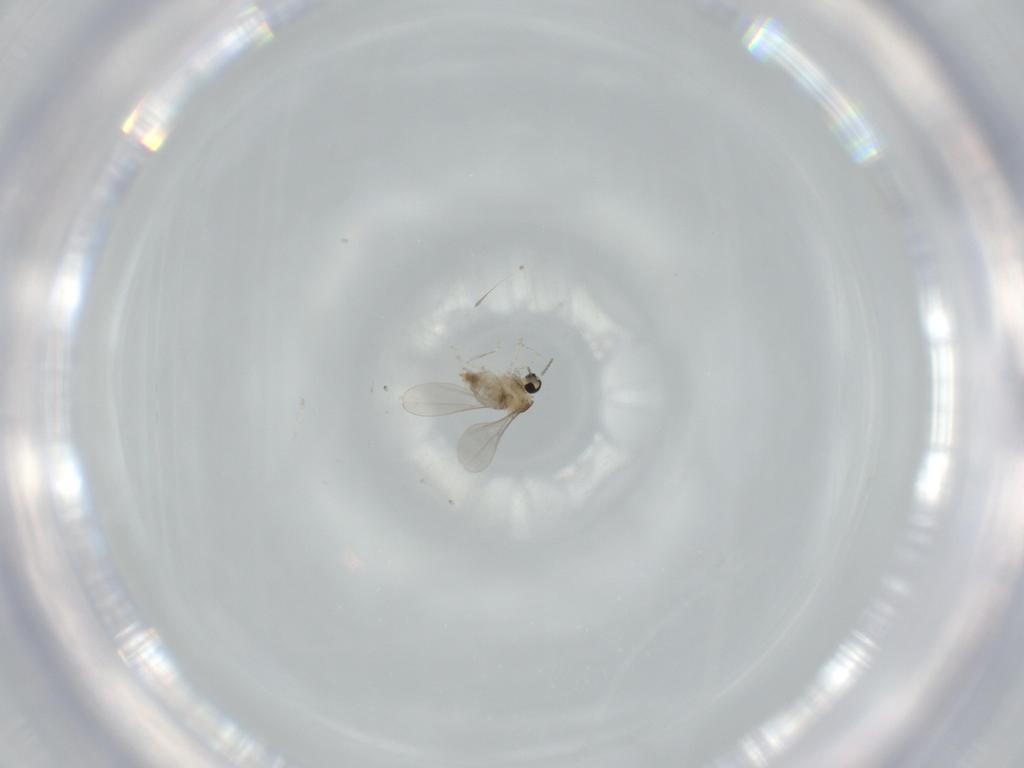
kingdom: Animalia
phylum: Arthropoda
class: Insecta
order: Diptera
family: Cecidomyiidae
